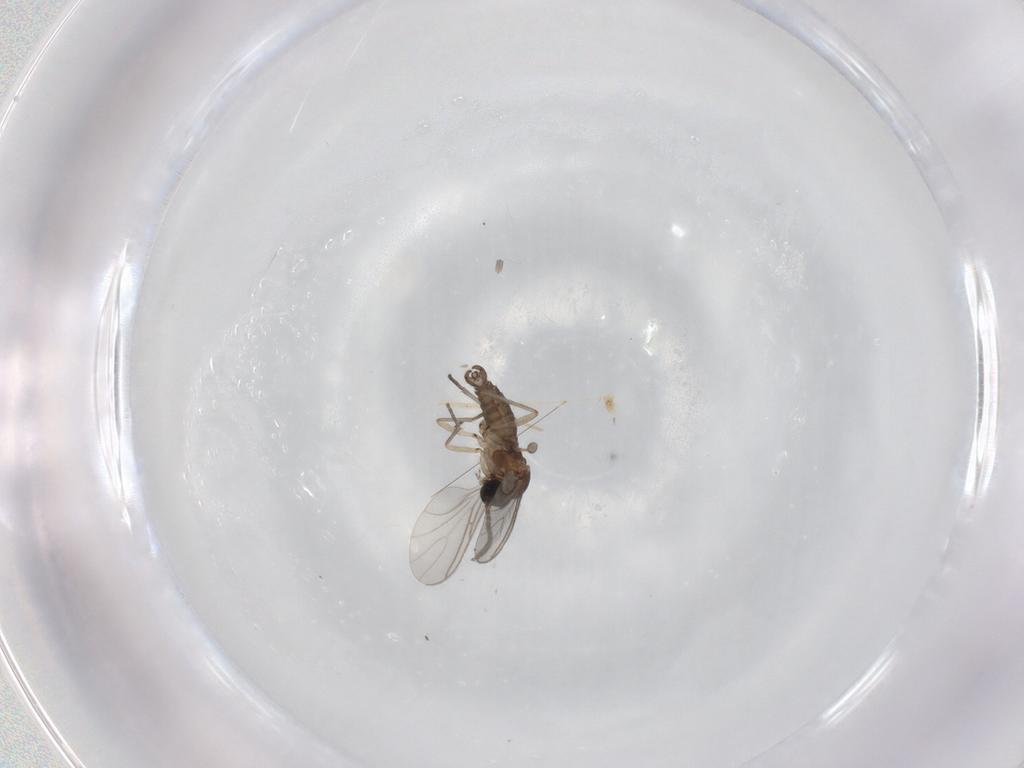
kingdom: Animalia
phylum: Arthropoda
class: Insecta
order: Diptera
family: Sciaridae
